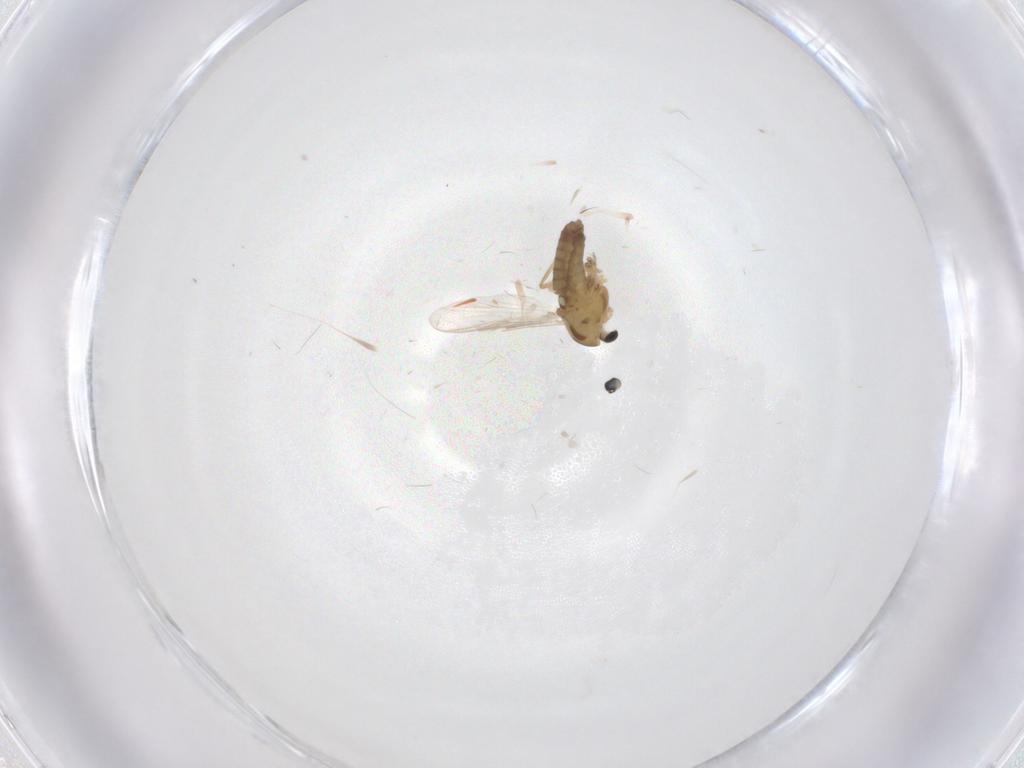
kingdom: Animalia
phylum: Arthropoda
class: Insecta
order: Diptera
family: Chironomidae
